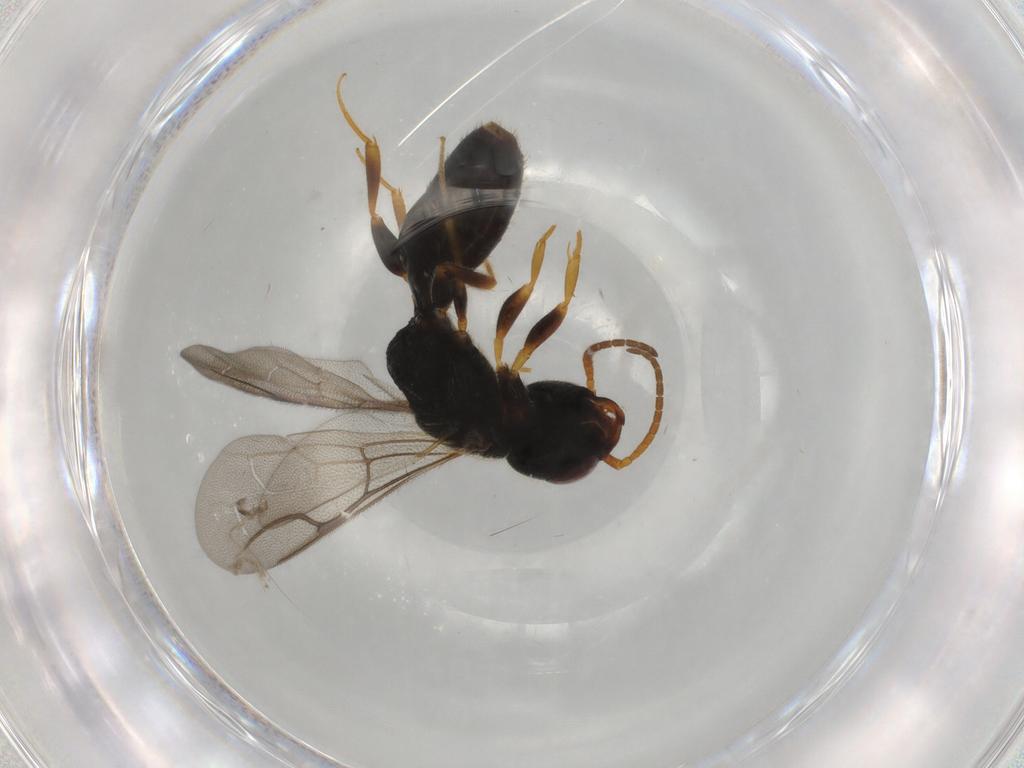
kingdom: Animalia
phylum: Arthropoda
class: Insecta
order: Hymenoptera
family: Bethylidae
